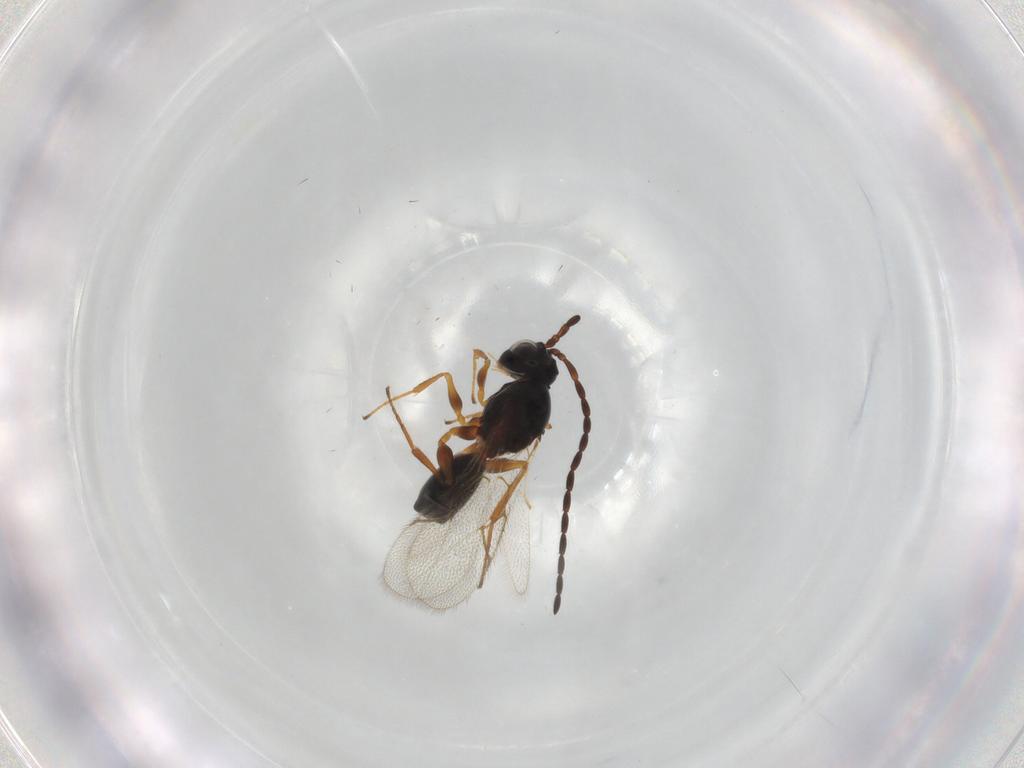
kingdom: Animalia
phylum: Arthropoda
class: Insecta
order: Hymenoptera
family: Figitidae
